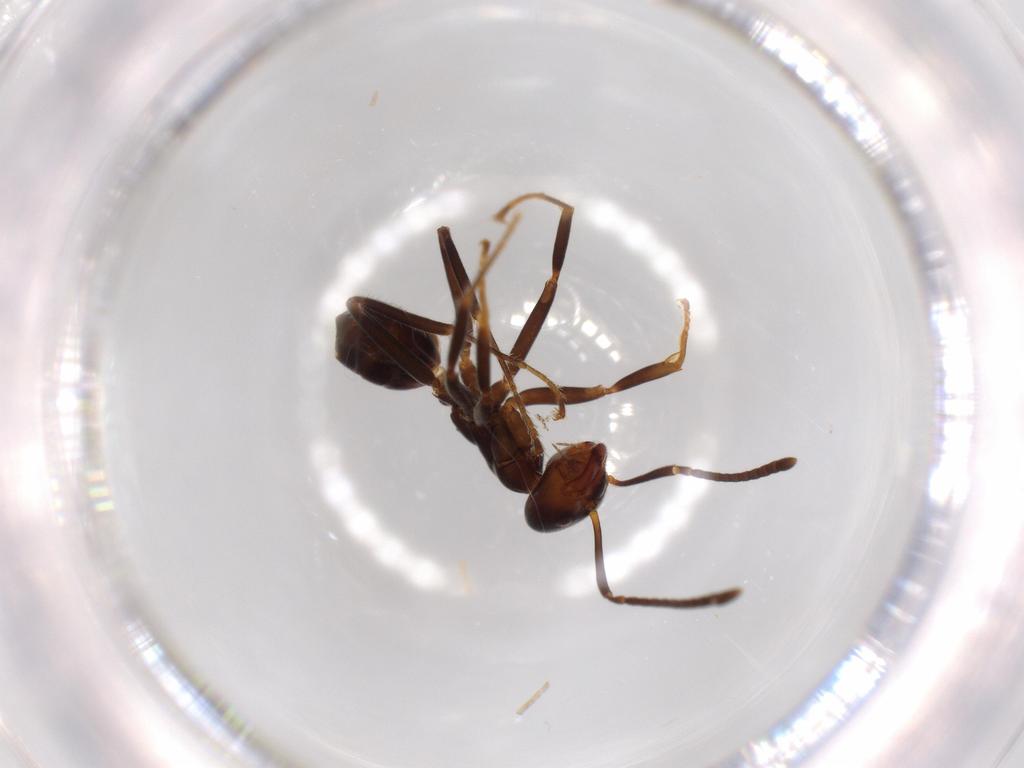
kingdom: Animalia
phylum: Arthropoda
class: Insecta
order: Hymenoptera
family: Formicidae
